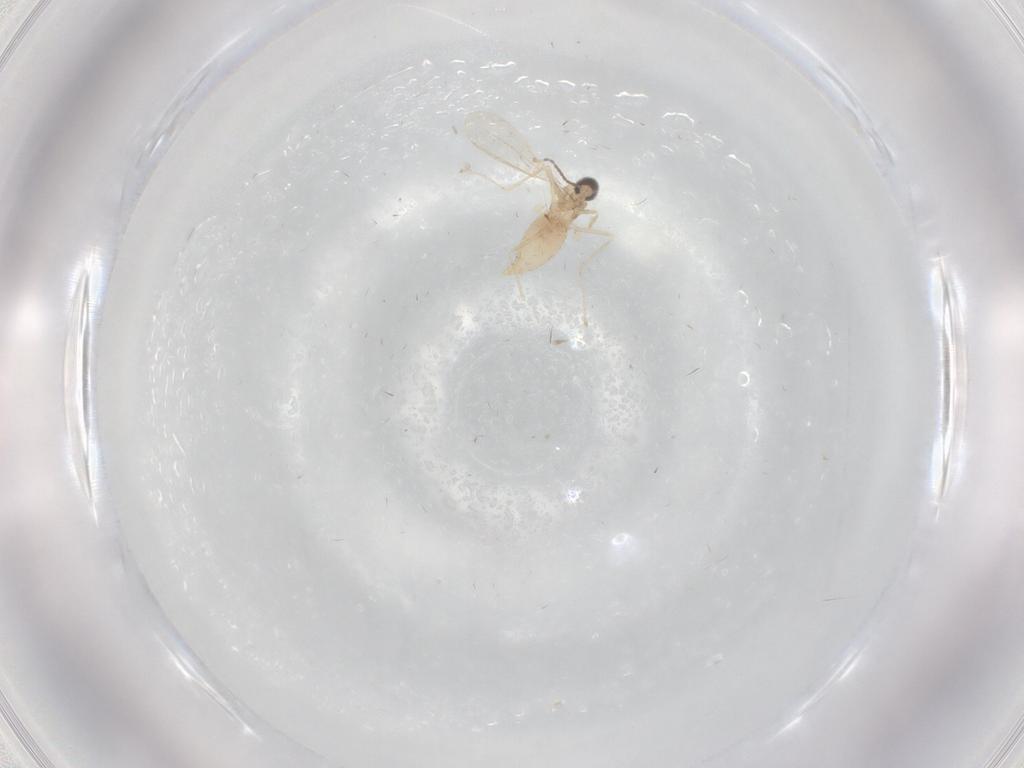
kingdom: Animalia
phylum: Arthropoda
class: Insecta
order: Diptera
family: Cecidomyiidae
